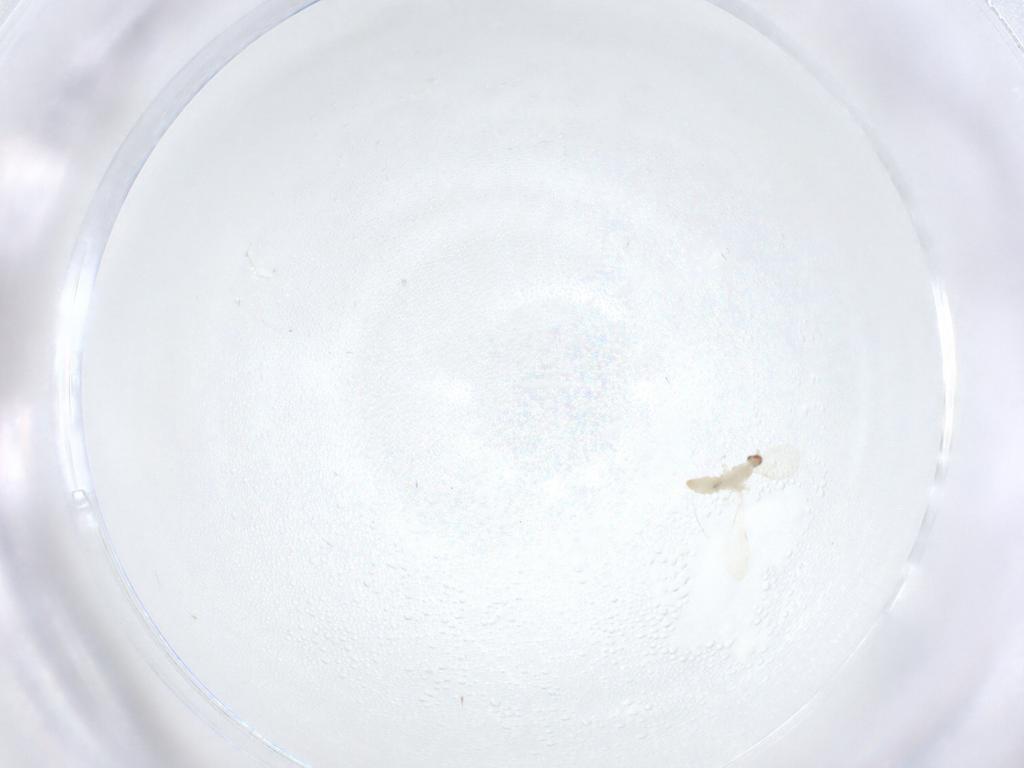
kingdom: Animalia
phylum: Arthropoda
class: Insecta
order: Diptera
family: Cecidomyiidae
